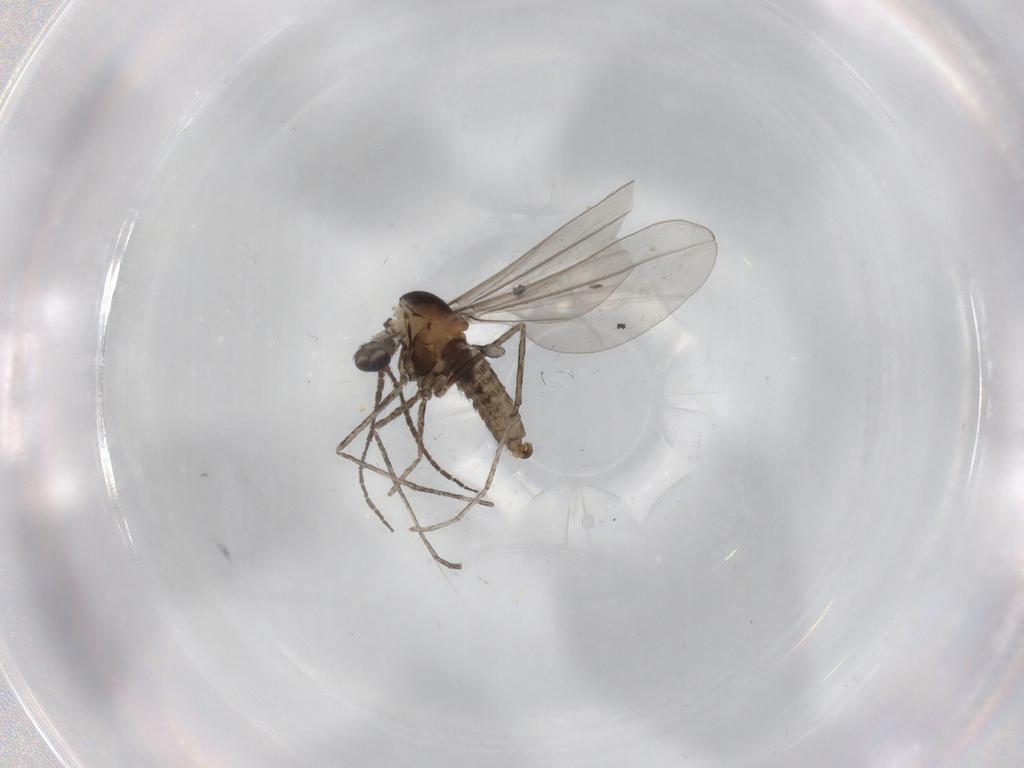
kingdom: Animalia
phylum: Arthropoda
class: Insecta
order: Diptera
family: Cecidomyiidae
